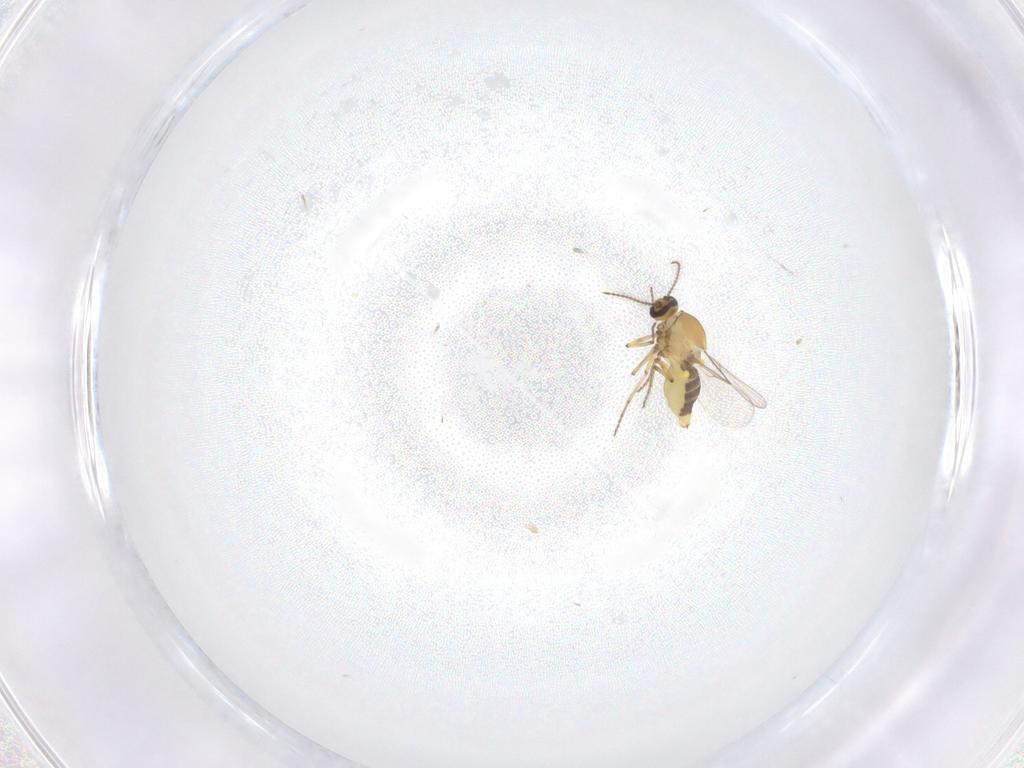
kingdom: Animalia
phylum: Arthropoda
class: Insecta
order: Diptera
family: Ceratopogonidae
